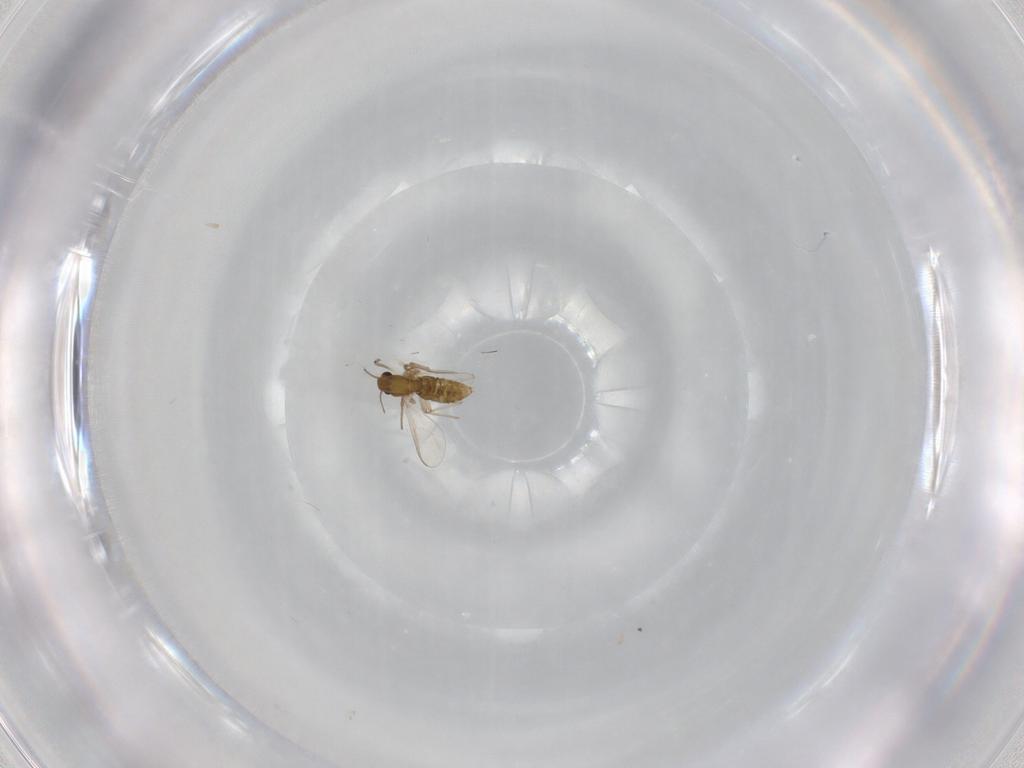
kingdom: Animalia
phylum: Arthropoda
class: Insecta
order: Diptera
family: Chironomidae
